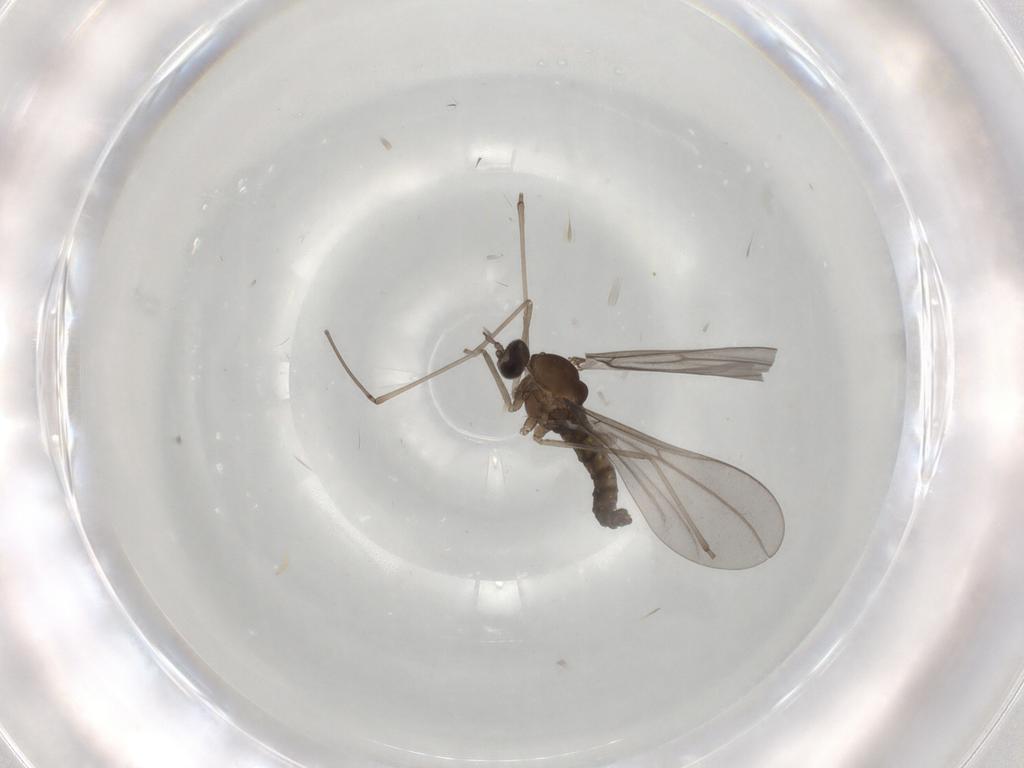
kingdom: Animalia
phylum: Arthropoda
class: Insecta
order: Diptera
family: Cecidomyiidae
